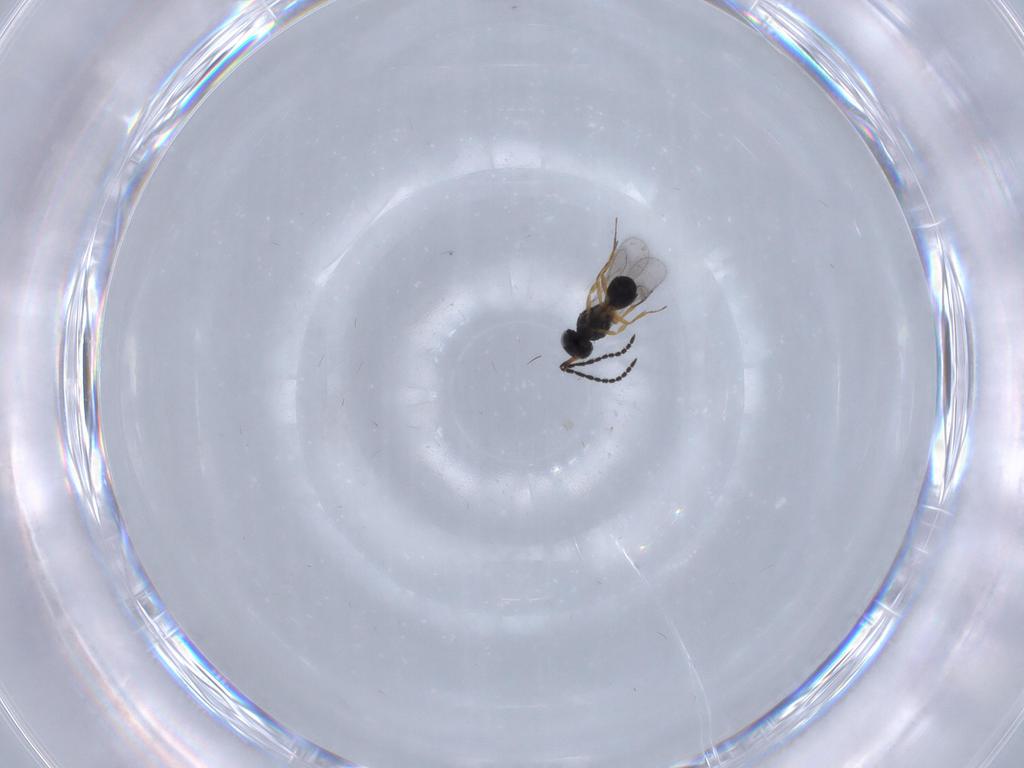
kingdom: Animalia
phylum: Arthropoda
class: Insecta
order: Hymenoptera
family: Scelionidae
